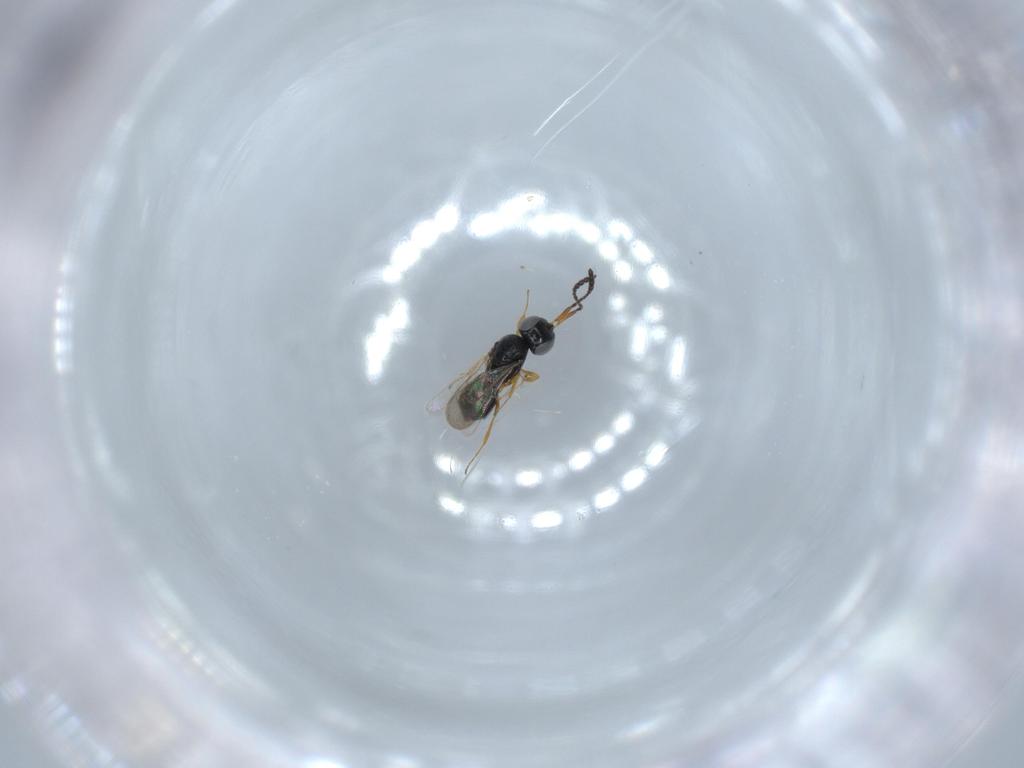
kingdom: Animalia
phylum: Arthropoda
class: Insecta
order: Hymenoptera
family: Scelionidae
